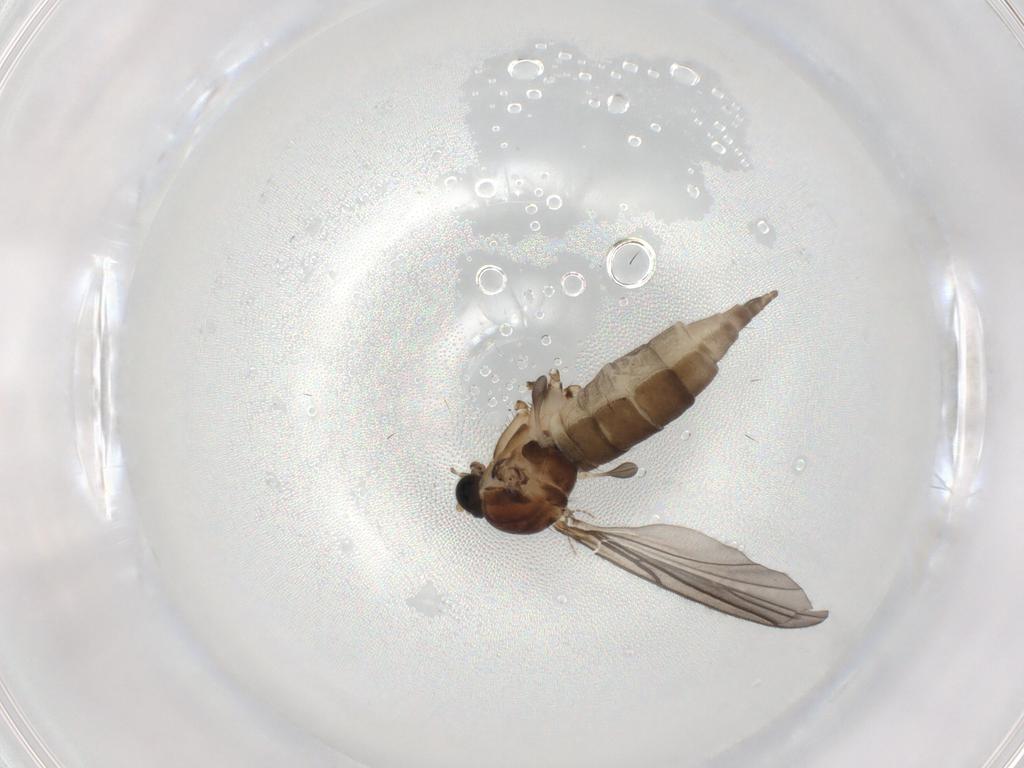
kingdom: Animalia
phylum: Arthropoda
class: Insecta
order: Diptera
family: Sciaridae
